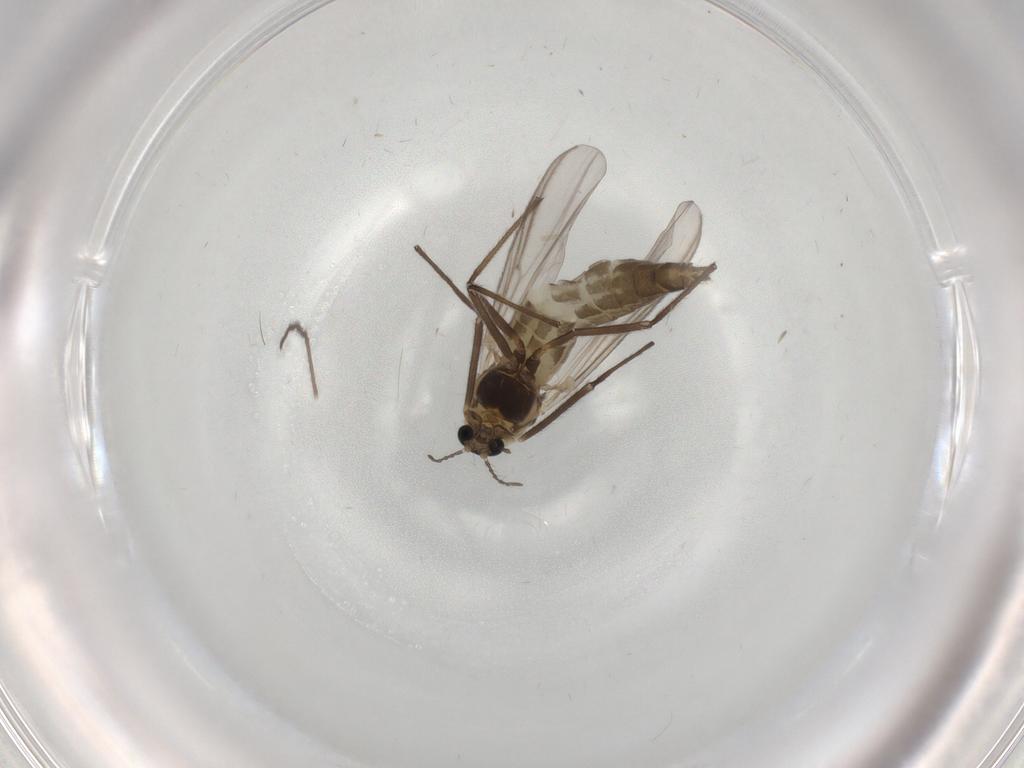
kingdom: Animalia
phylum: Arthropoda
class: Insecta
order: Diptera
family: Chironomidae
